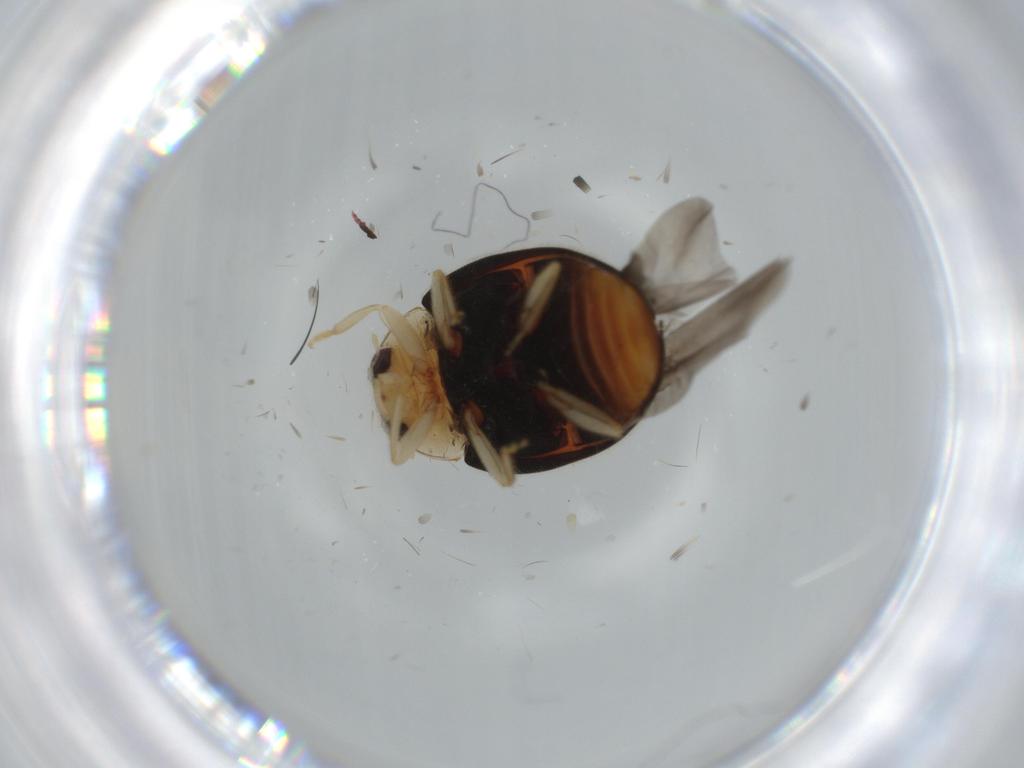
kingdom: Animalia
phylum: Arthropoda
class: Insecta
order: Coleoptera
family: Coccinellidae
